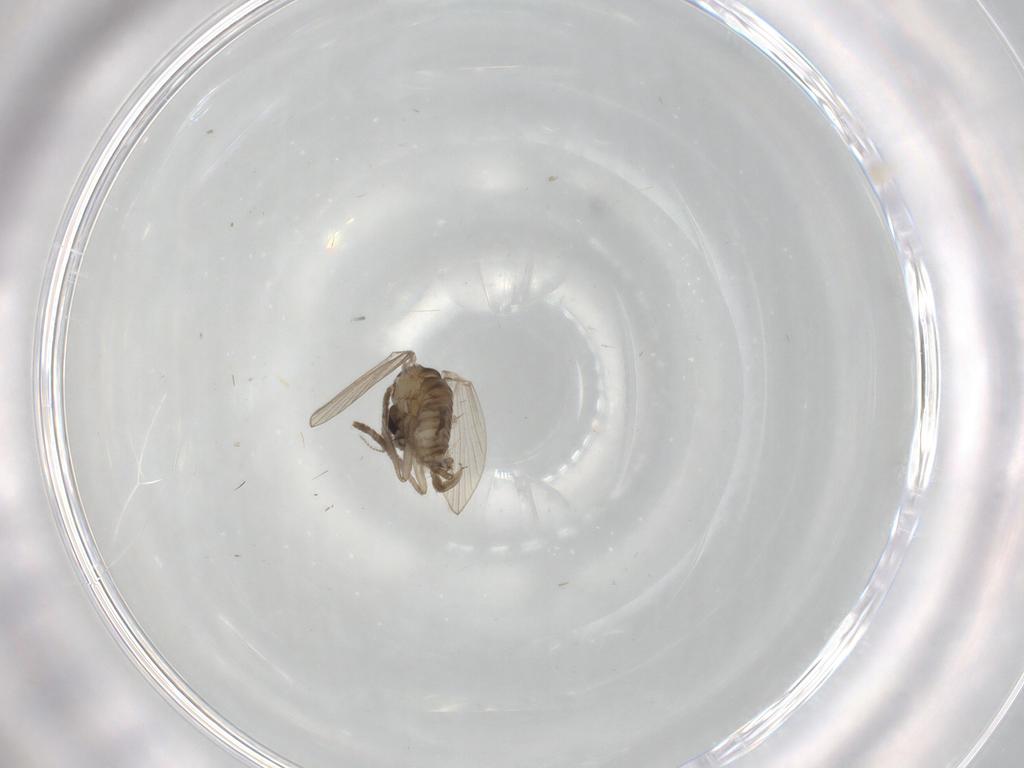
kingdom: Animalia
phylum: Arthropoda
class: Insecta
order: Diptera
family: Psychodidae
